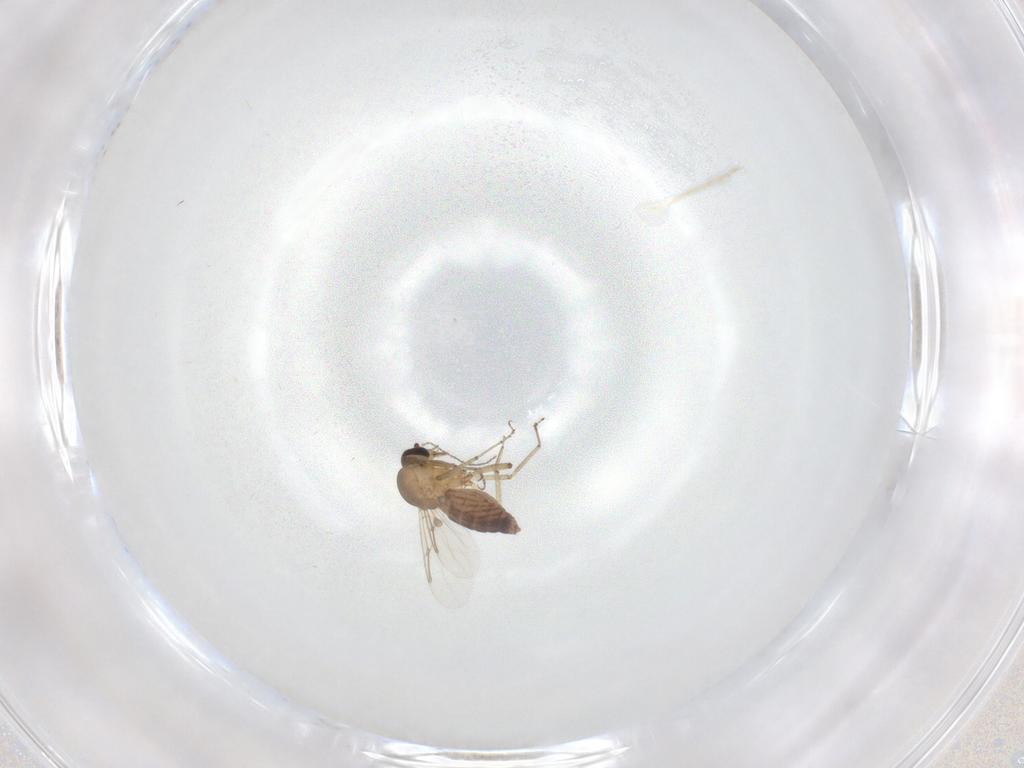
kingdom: Animalia
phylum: Arthropoda
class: Insecta
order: Diptera
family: Ceratopogonidae
